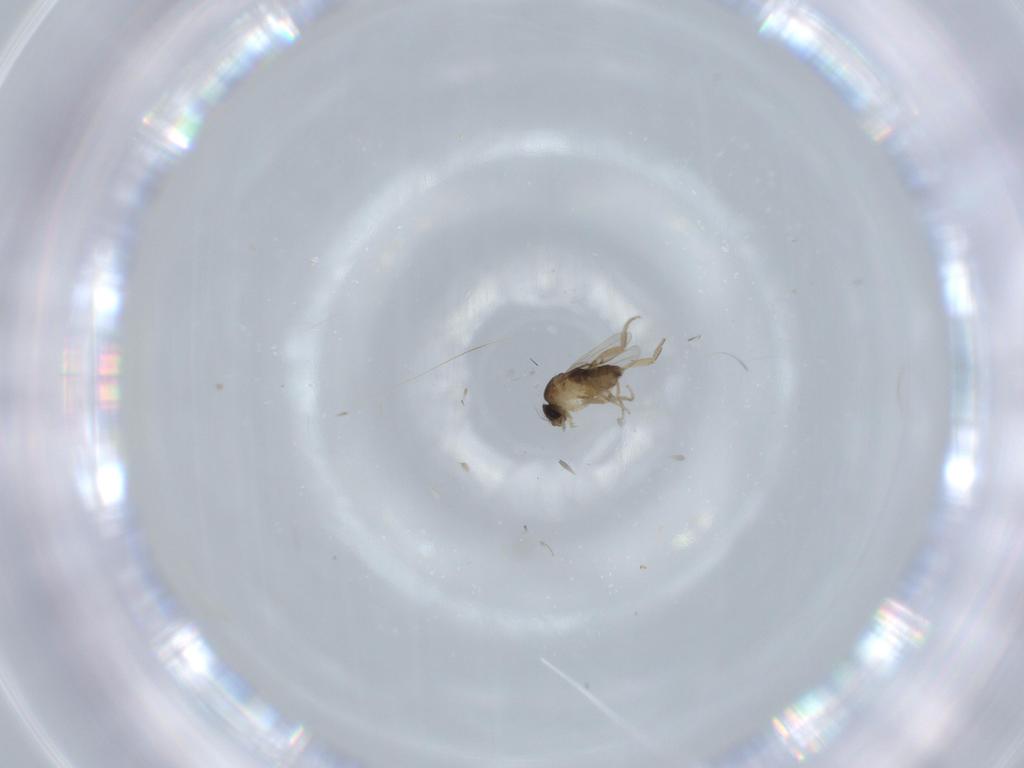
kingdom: Animalia
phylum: Arthropoda
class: Insecta
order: Diptera
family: Phoridae
